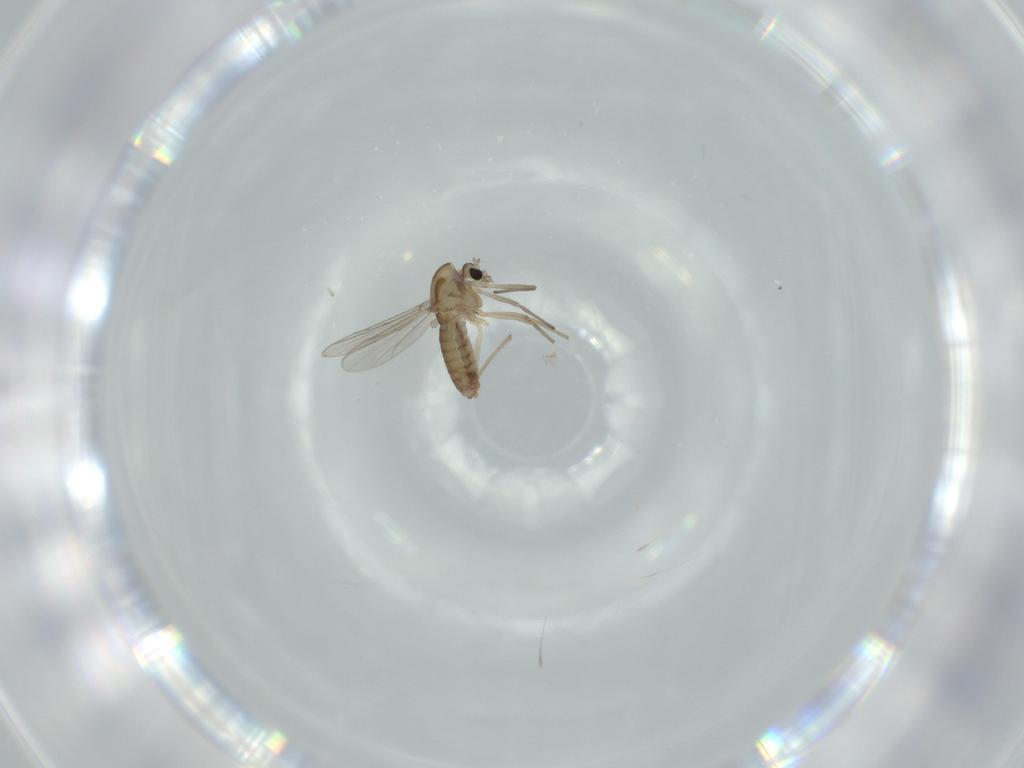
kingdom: Animalia
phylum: Arthropoda
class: Insecta
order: Diptera
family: Chironomidae
